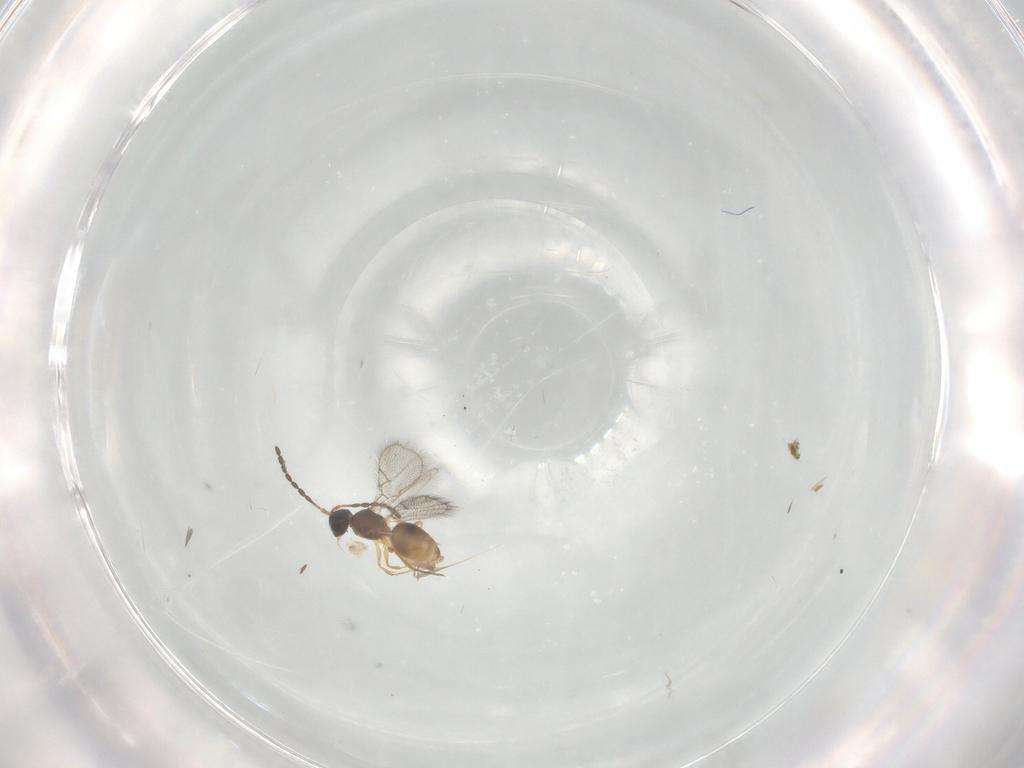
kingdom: Animalia
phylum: Arthropoda
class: Insecta
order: Hymenoptera
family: Figitidae
